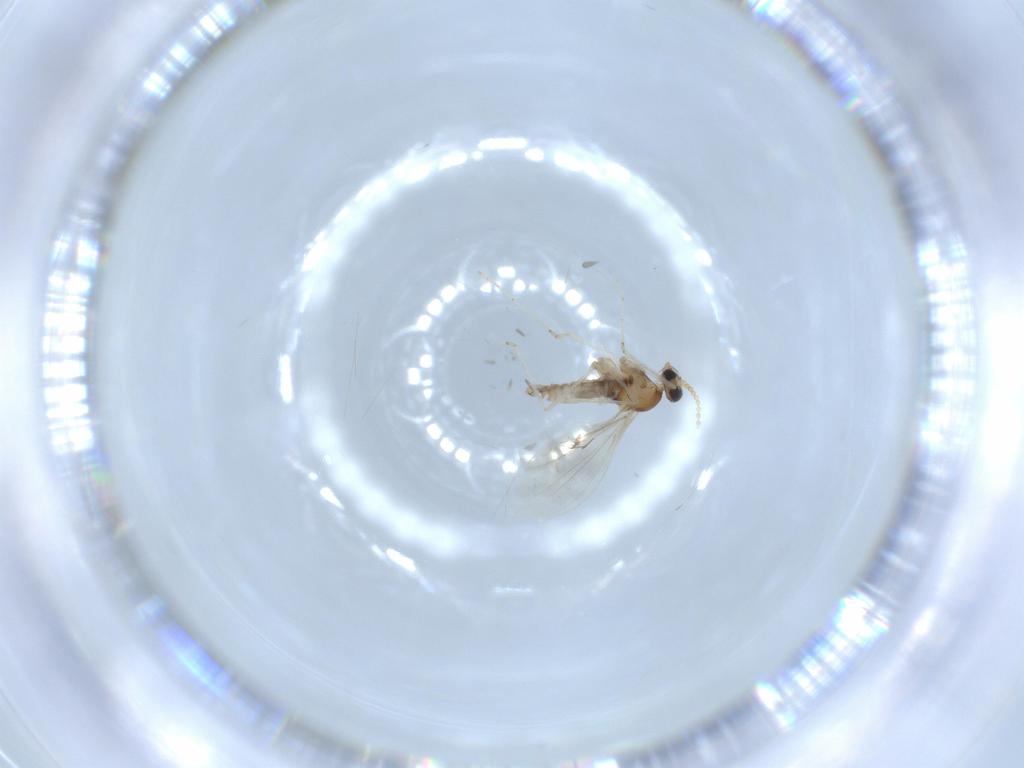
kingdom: Animalia
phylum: Arthropoda
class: Insecta
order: Diptera
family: Cecidomyiidae
